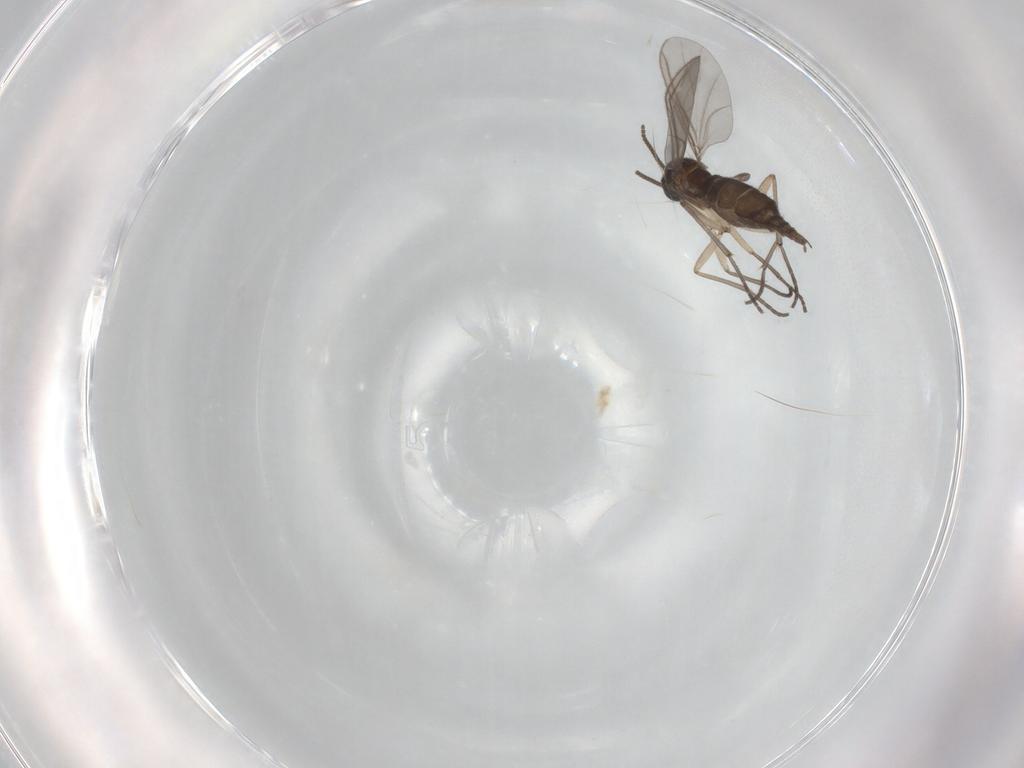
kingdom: Animalia
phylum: Arthropoda
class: Insecta
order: Diptera
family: Sciaridae
